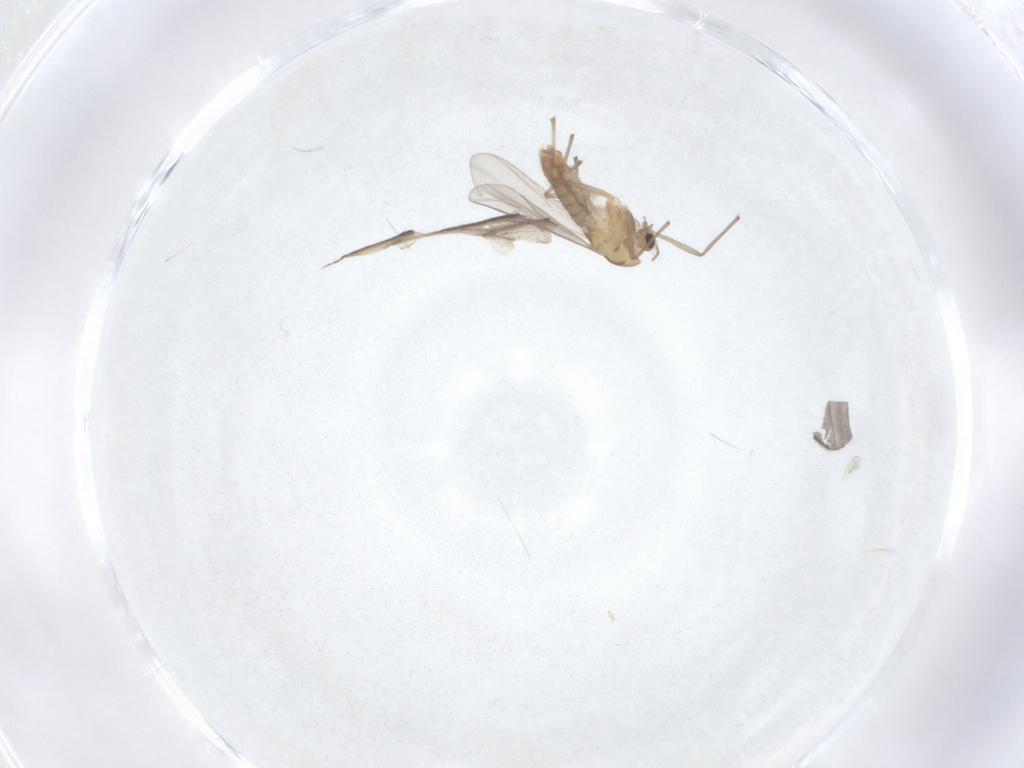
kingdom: Animalia
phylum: Arthropoda
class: Insecta
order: Diptera
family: Chironomidae
